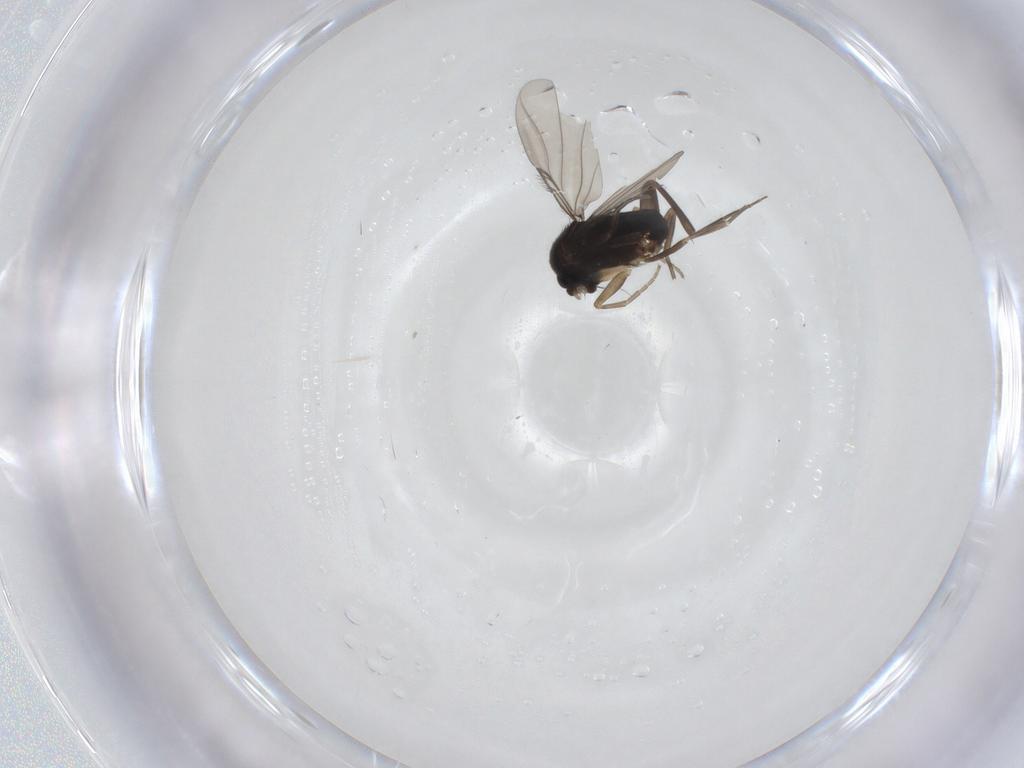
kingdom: Animalia
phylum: Arthropoda
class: Insecta
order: Diptera
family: Phoridae
